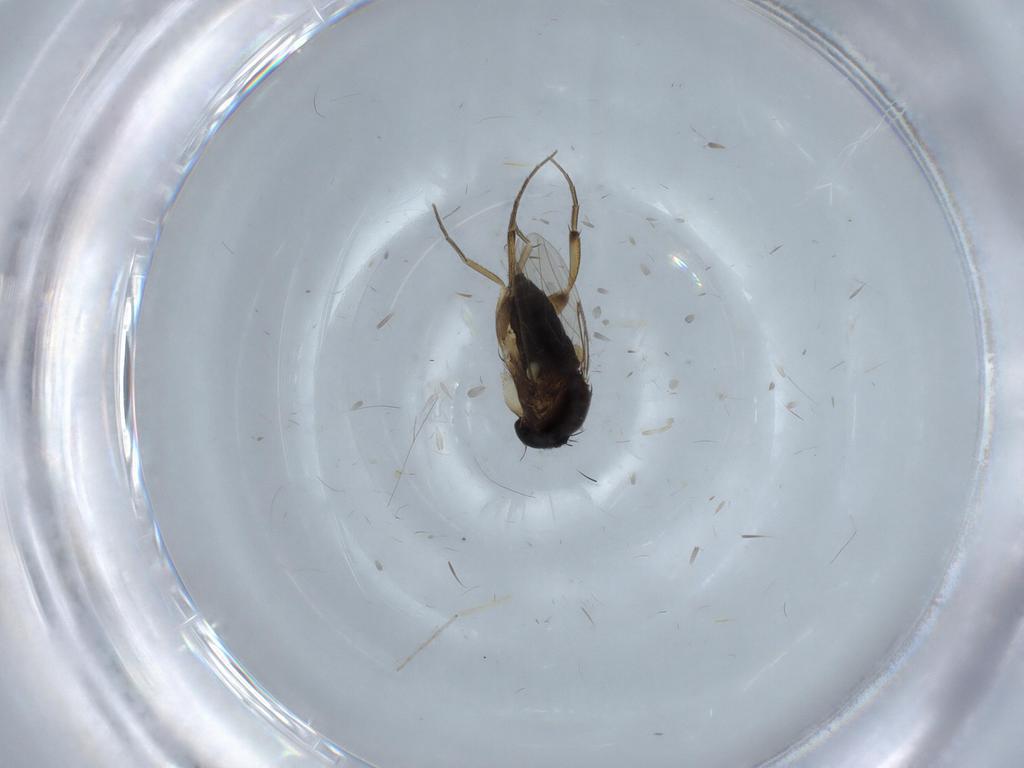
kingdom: Animalia
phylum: Arthropoda
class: Insecta
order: Diptera
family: Phoridae
